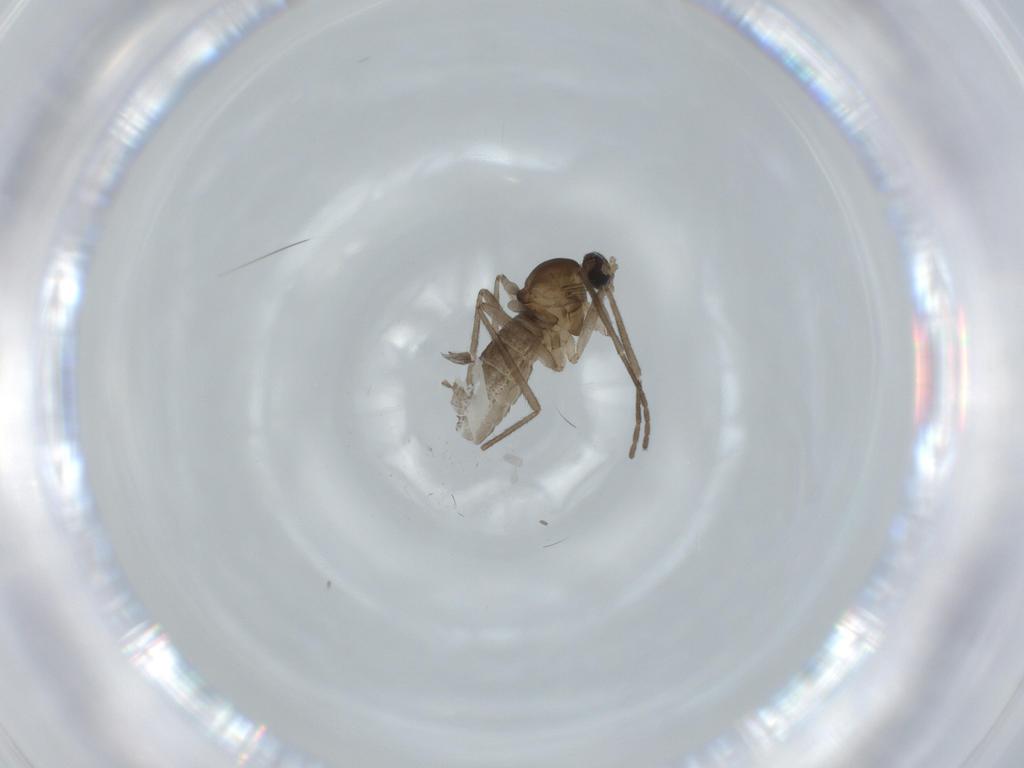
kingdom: Animalia
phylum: Arthropoda
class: Insecta
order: Diptera
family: Cecidomyiidae
